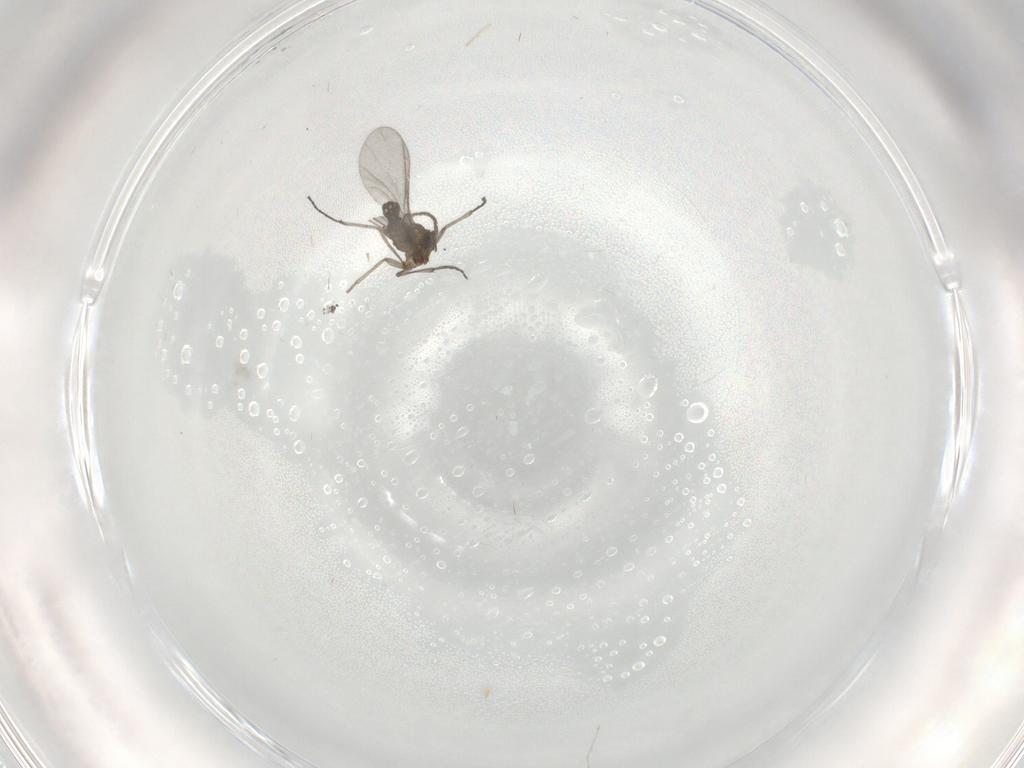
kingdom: Animalia
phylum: Arthropoda
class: Insecta
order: Diptera
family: Sciaridae
